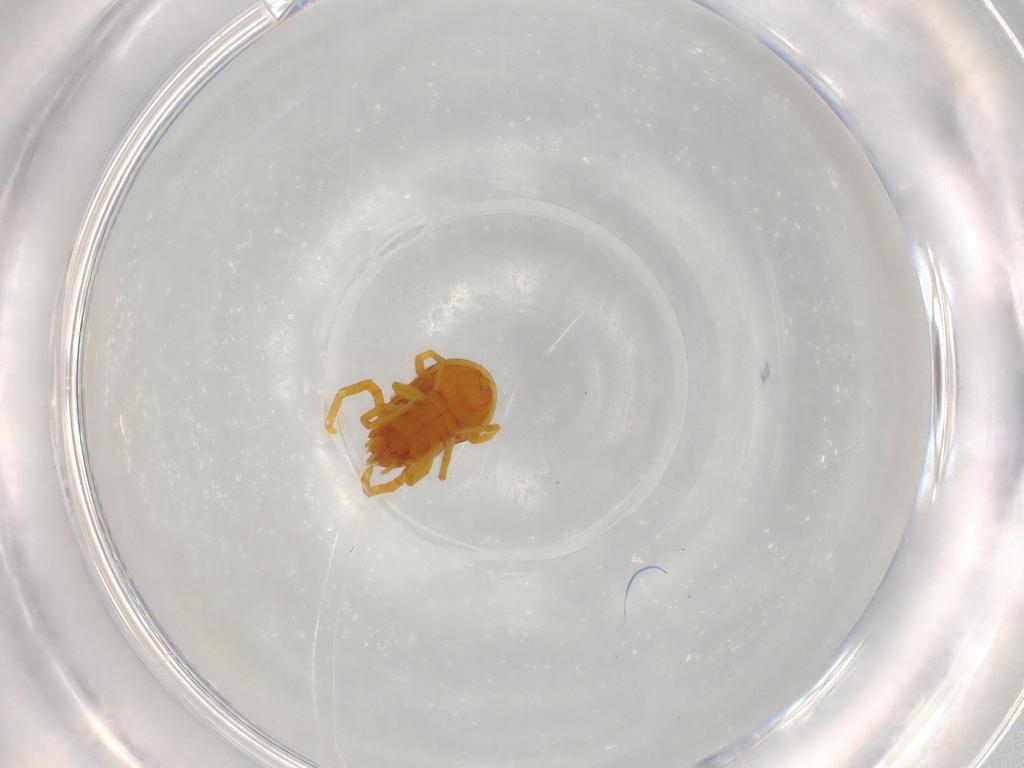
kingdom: Animalia
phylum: Arthropoda
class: Arachnida
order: Trombidiformes
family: Labidostommidae
